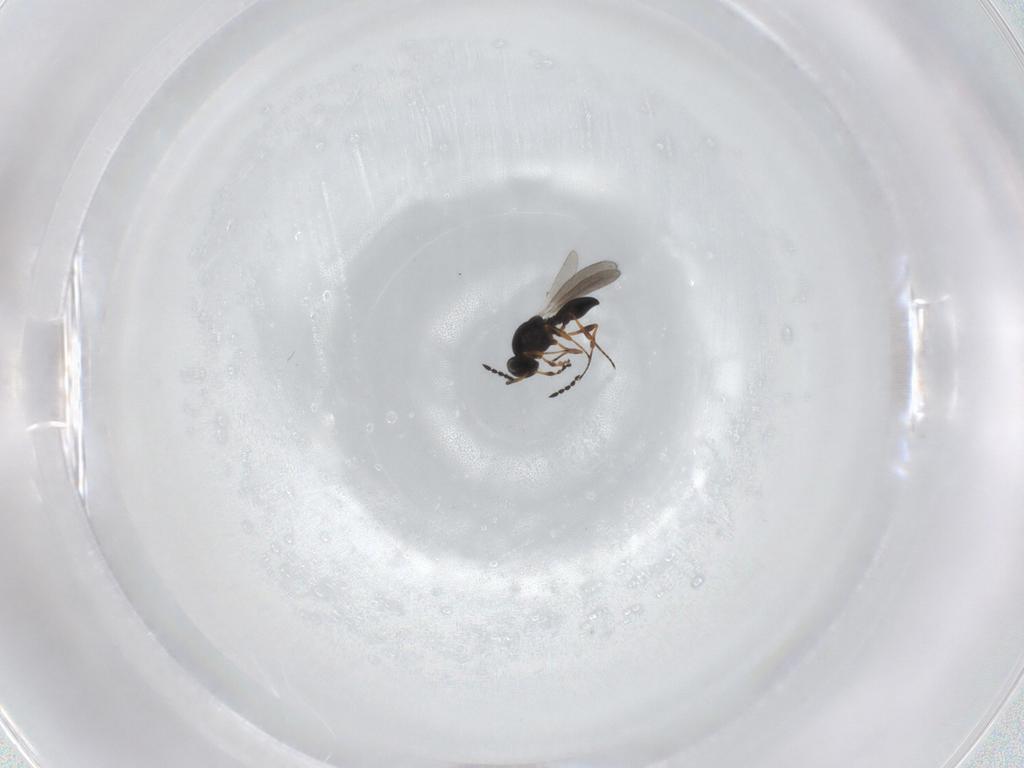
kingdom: Animalia
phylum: Arthropoda
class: Insecta
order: Hymenoptera
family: Platygastridae
